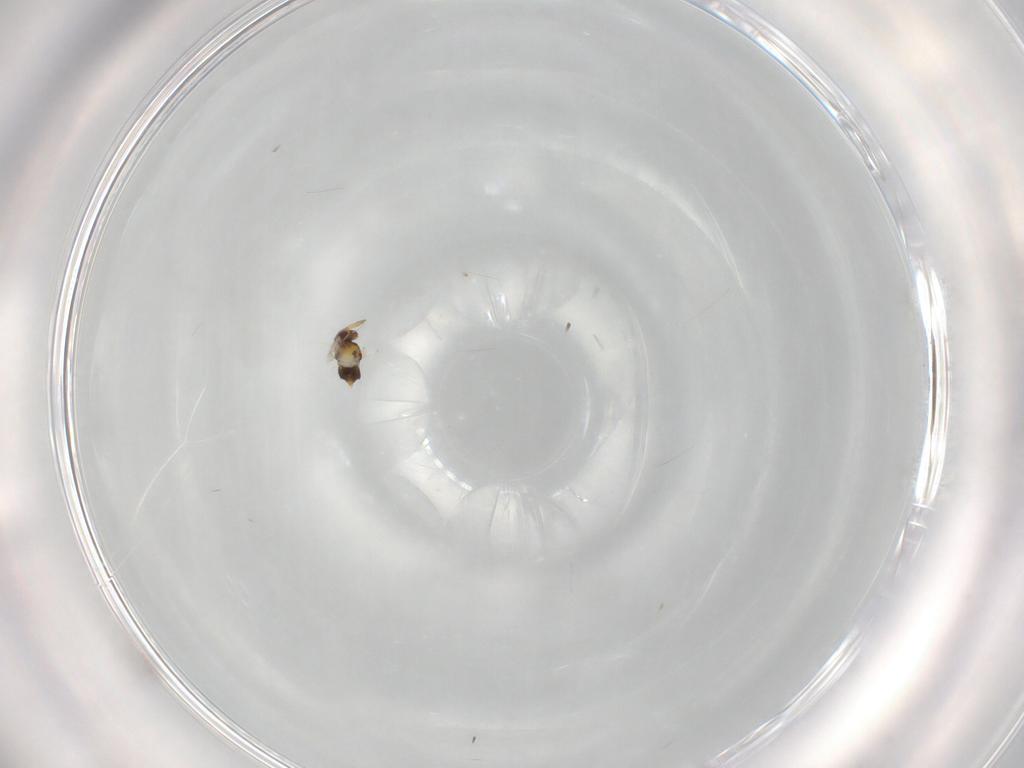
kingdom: Animalia
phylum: Arthropoda
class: Insecta
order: Hymenoptera
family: Aphelinidae
